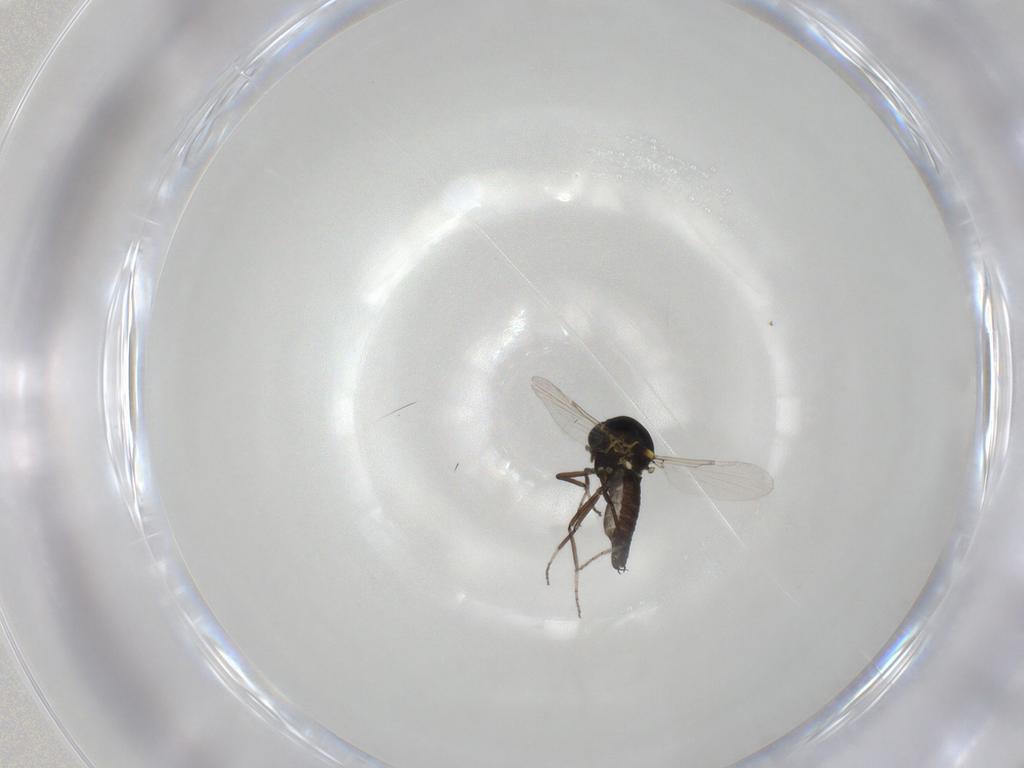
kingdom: Animalia
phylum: Arthropoda
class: Insecta
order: Diptera
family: Ceratopogonidae
